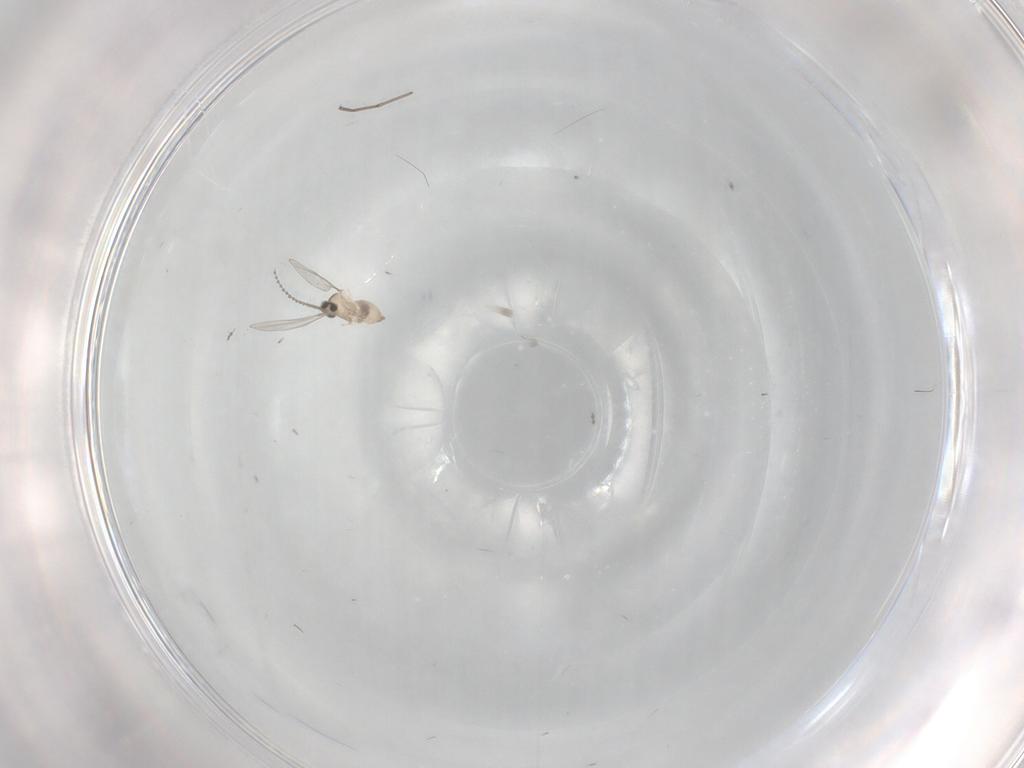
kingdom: Animalia
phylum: Arthropoda
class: Insecta
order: Diptera
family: Cecidomyiidae
